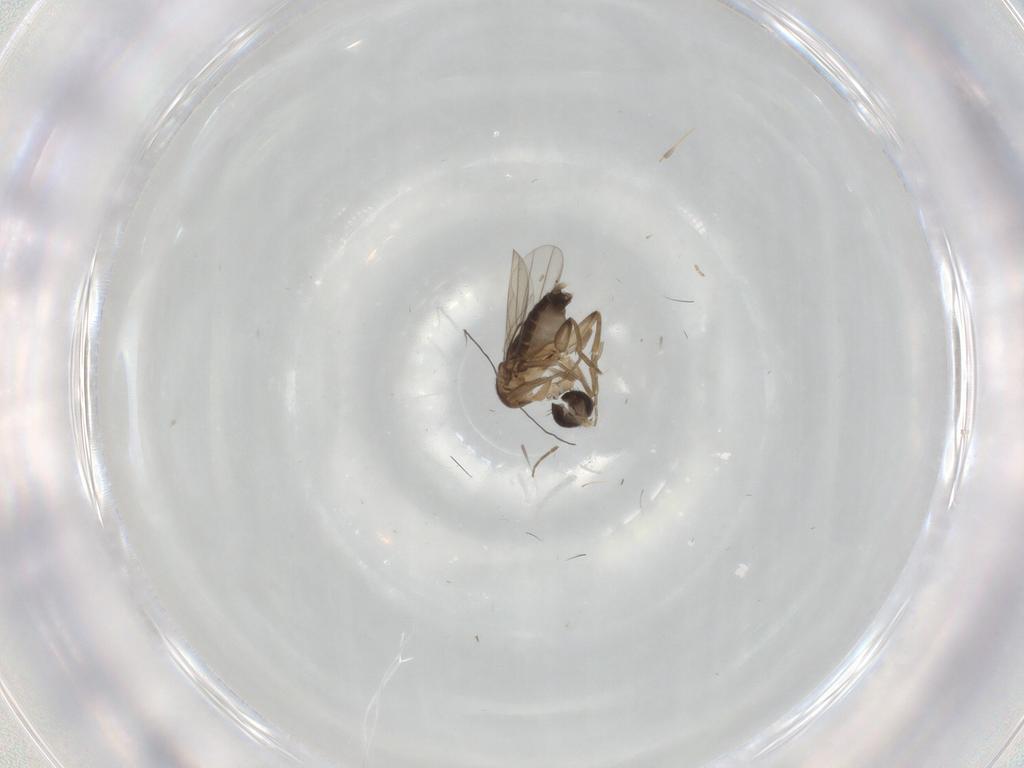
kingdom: Animalia
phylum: Arthropoda
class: Insecta
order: Diptera
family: Phoridae
